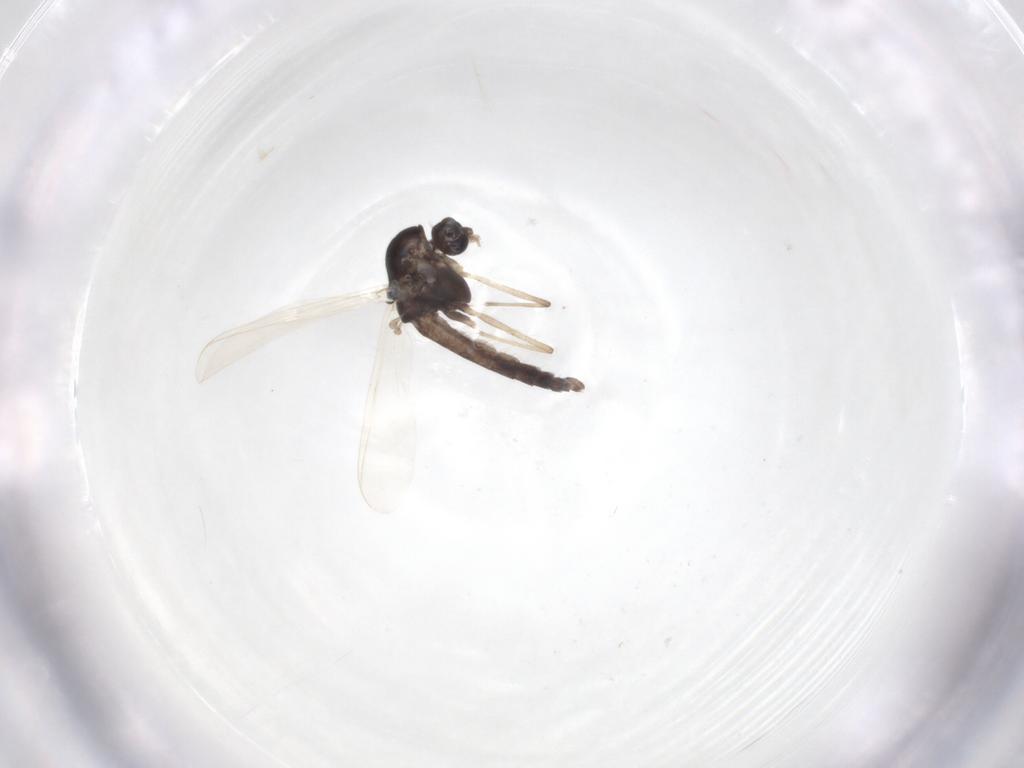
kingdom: Animalia
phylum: Arthropoda
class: Insecta
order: Diptera
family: Chironomidae
